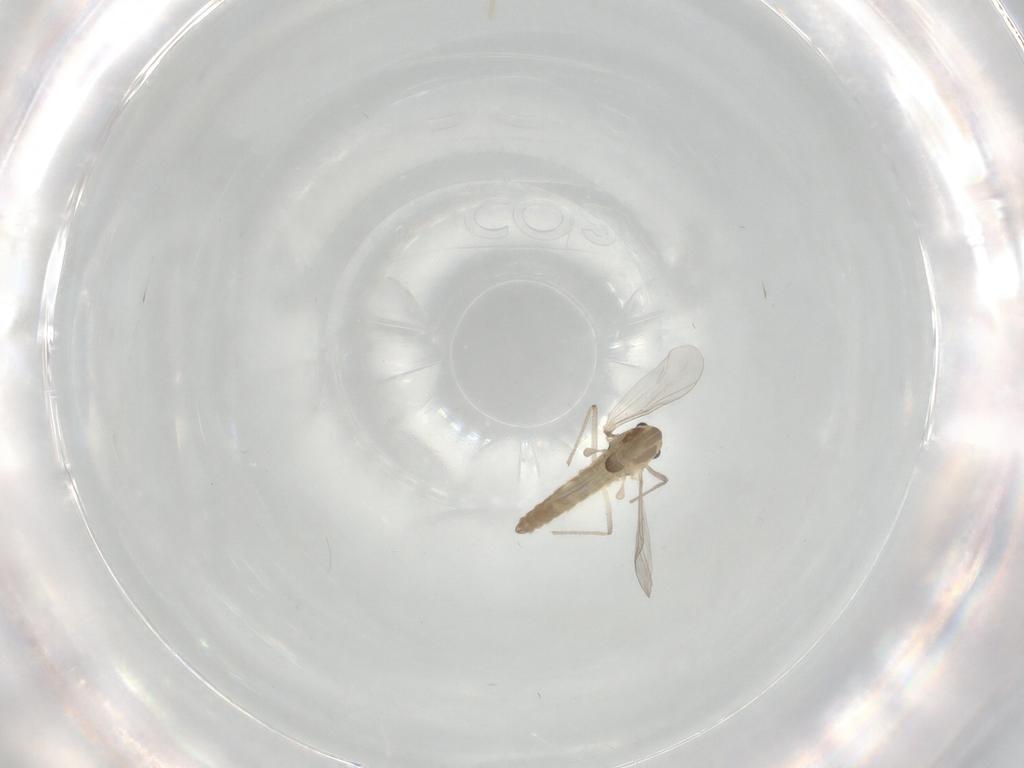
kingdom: Animalia
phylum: Arthropoda
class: Insecta
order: Diptera
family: Chironomidae
